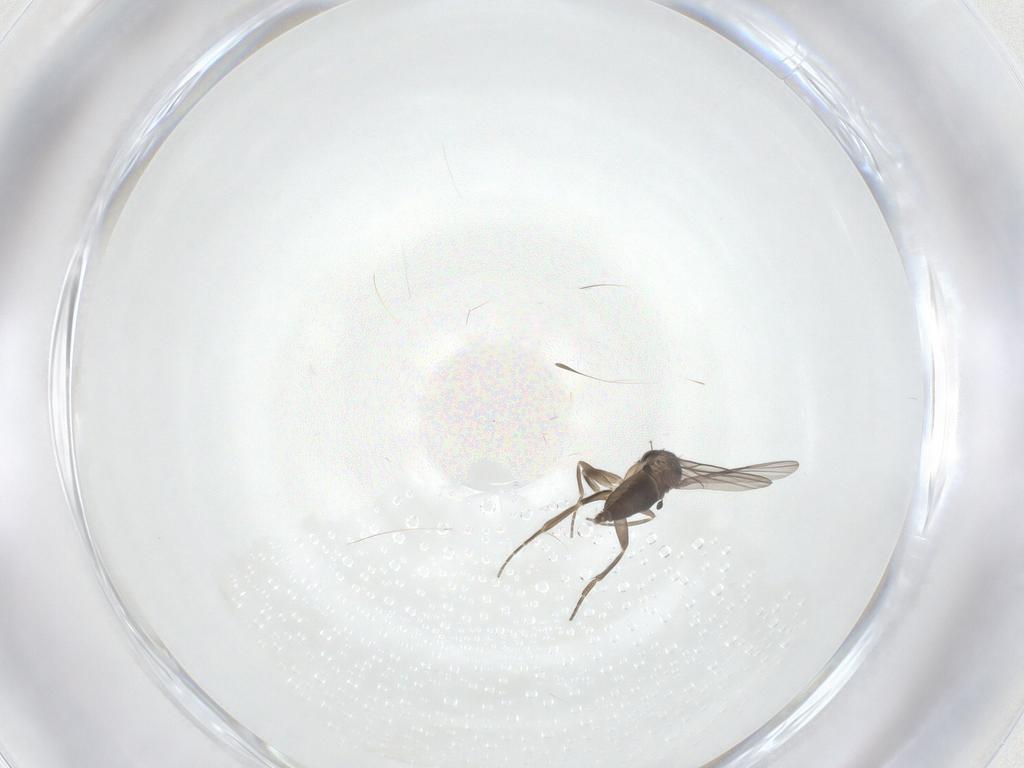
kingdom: Animalia
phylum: Arthropoda
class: Insecta
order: Diptera
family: Phoridae
